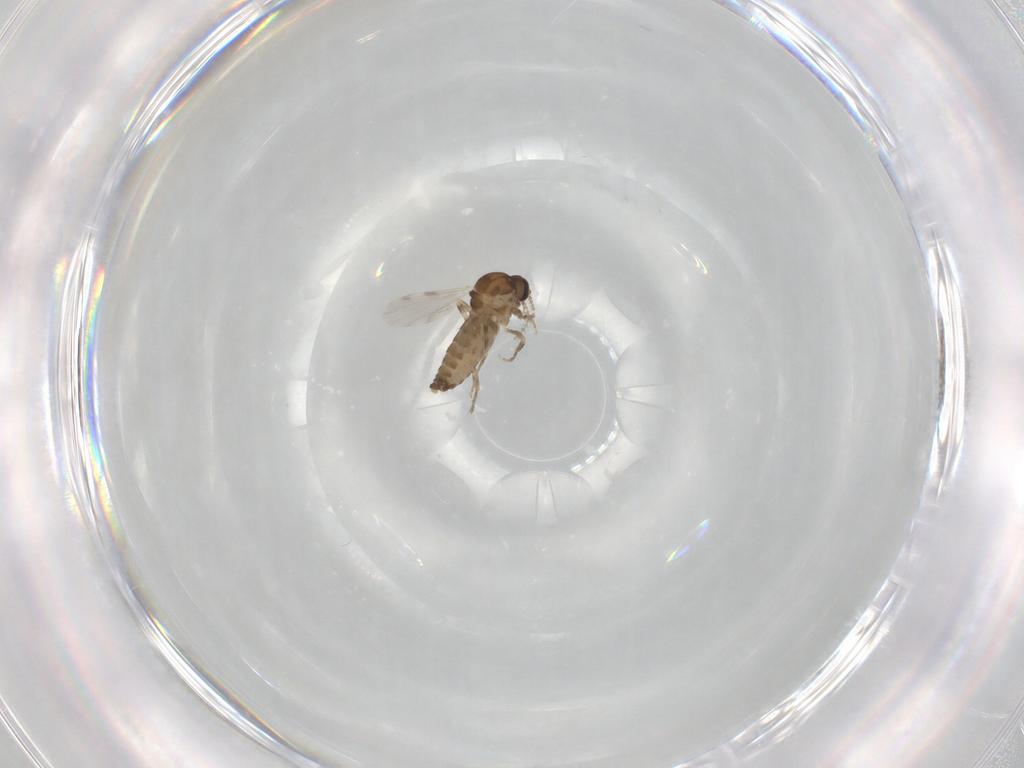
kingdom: Animalia
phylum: Arthropoda
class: Insecta
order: Diptera
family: Ceratopogonidae
